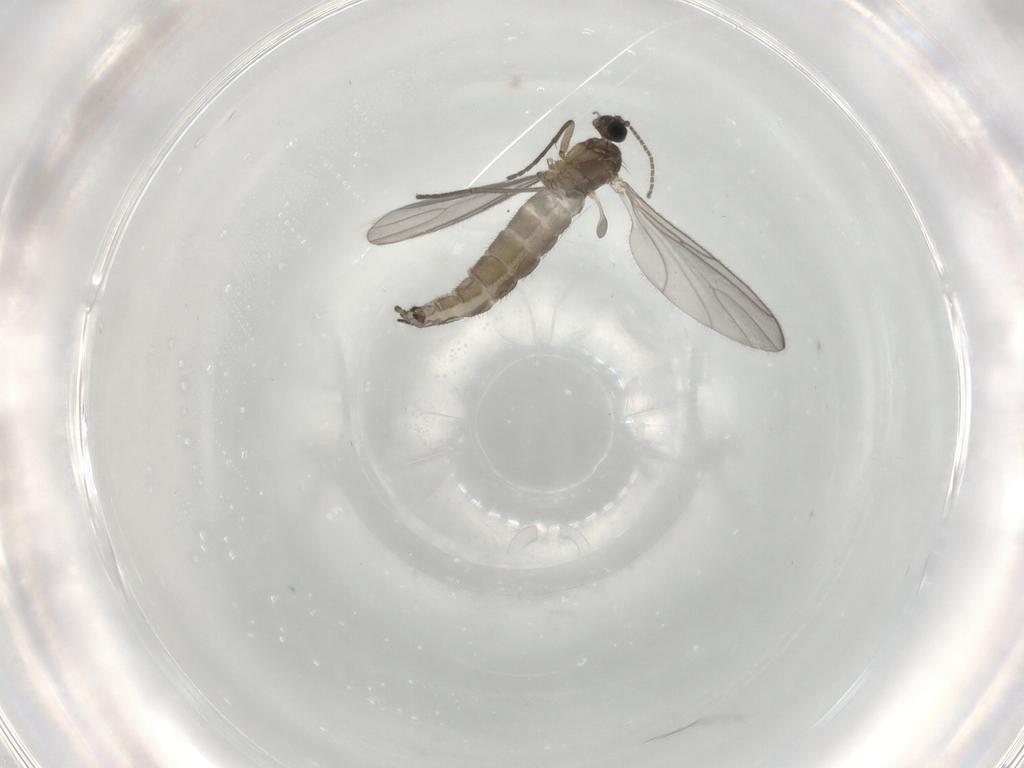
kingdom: Animalia
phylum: Arthropoda
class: Insecta
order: Diptera
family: Sciaridae
